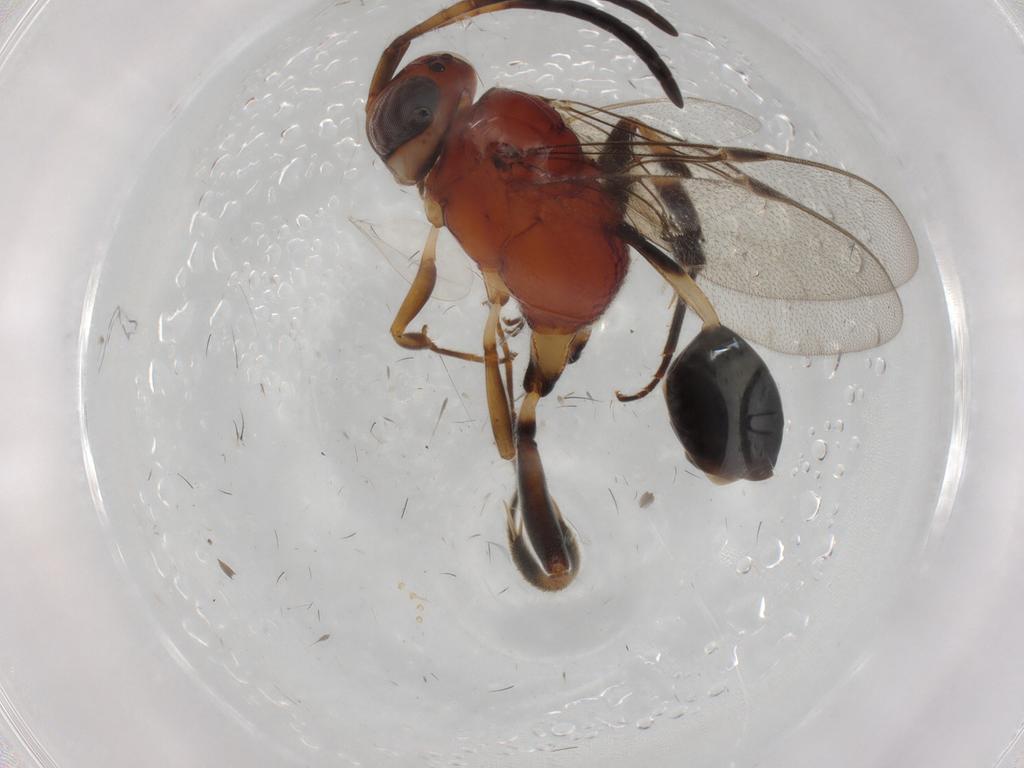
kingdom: Animalia
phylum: Arthropoda
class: Insecta
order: Hymenoptera
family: Evaniidae
